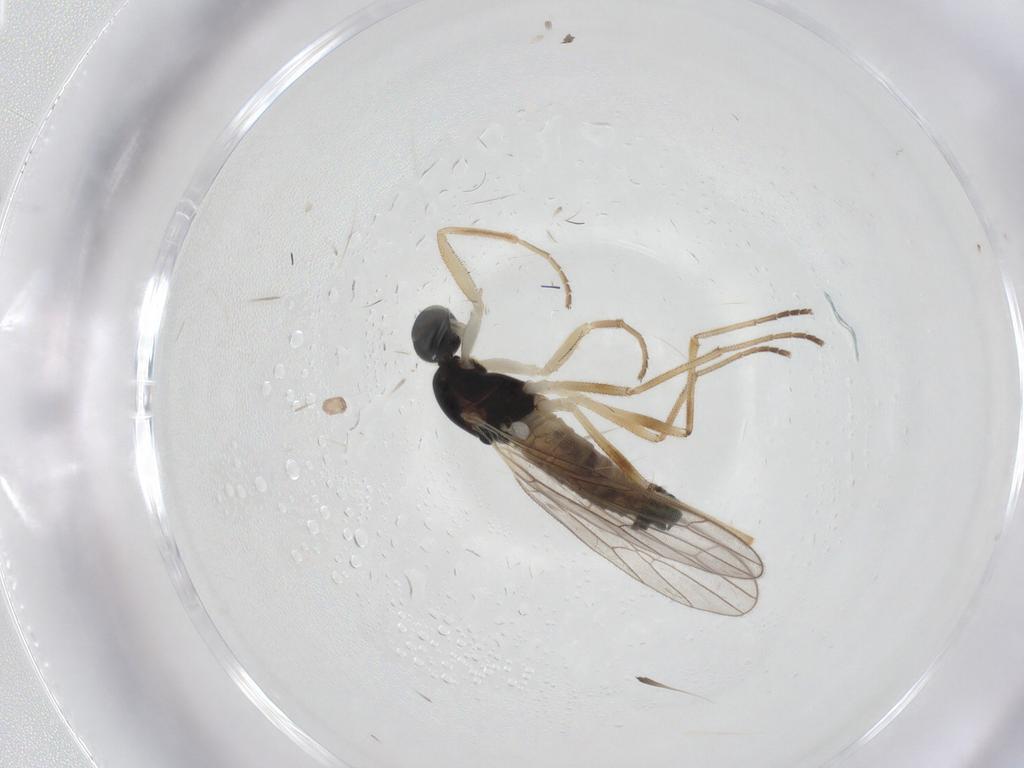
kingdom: Animalia
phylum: Arthropoda
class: Insecta
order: Diptera
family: Empididae
